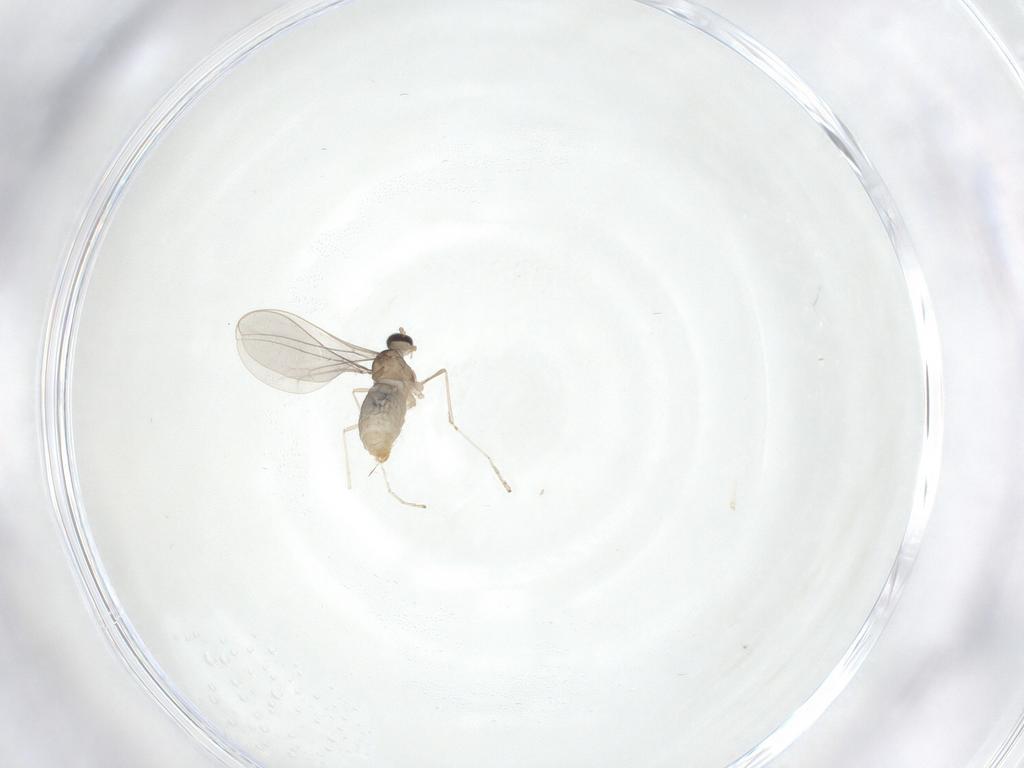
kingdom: Animalia
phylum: Arthropoda
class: Insecta
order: Diptera
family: Cecidomyiidae
